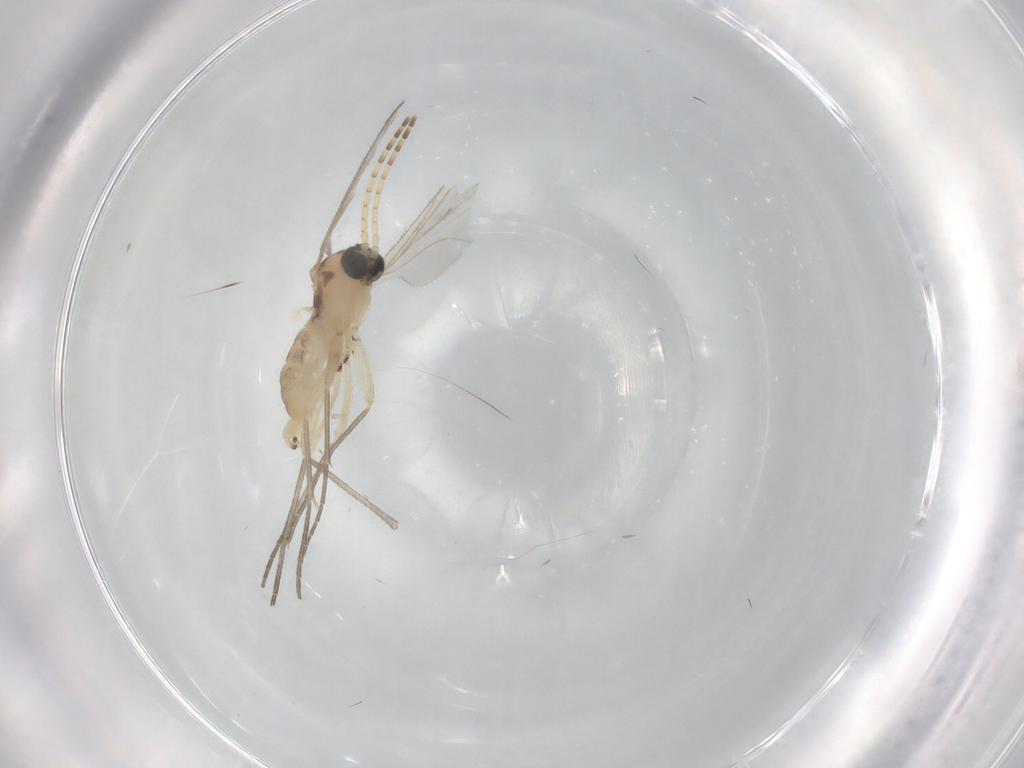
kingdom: Animalia
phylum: Arthropoda
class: Insecta
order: Diptera
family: Sciaridae
